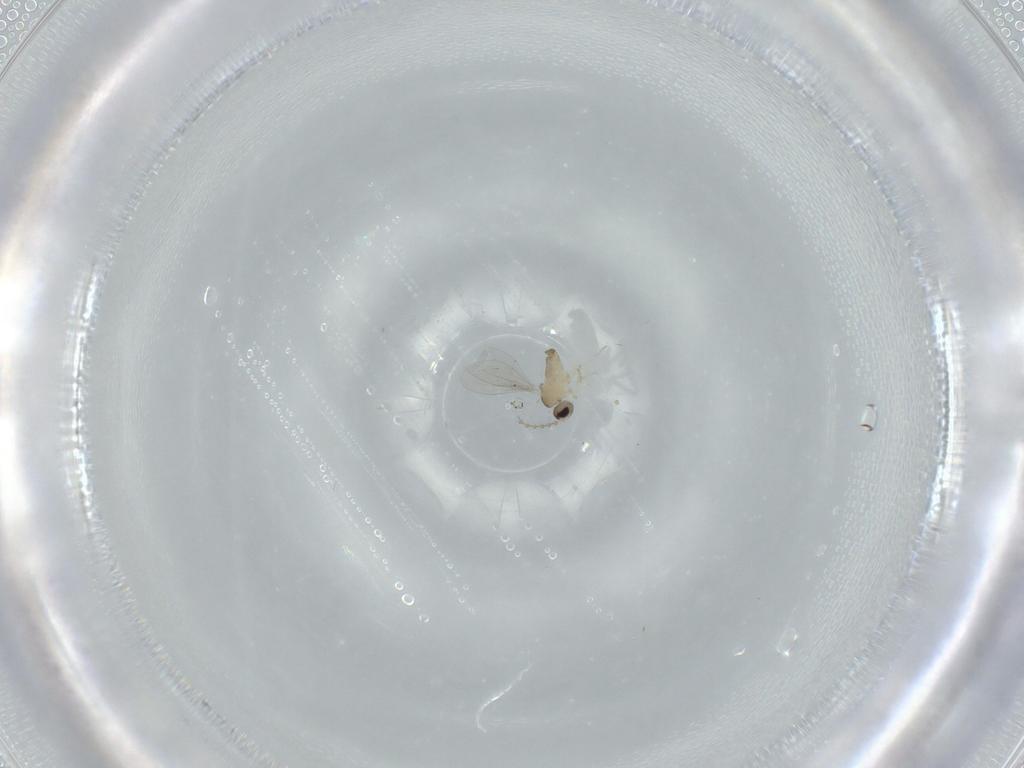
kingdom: Animalia
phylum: Arthropoda
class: Insecta
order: Diptera
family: Cecidomyiidae
